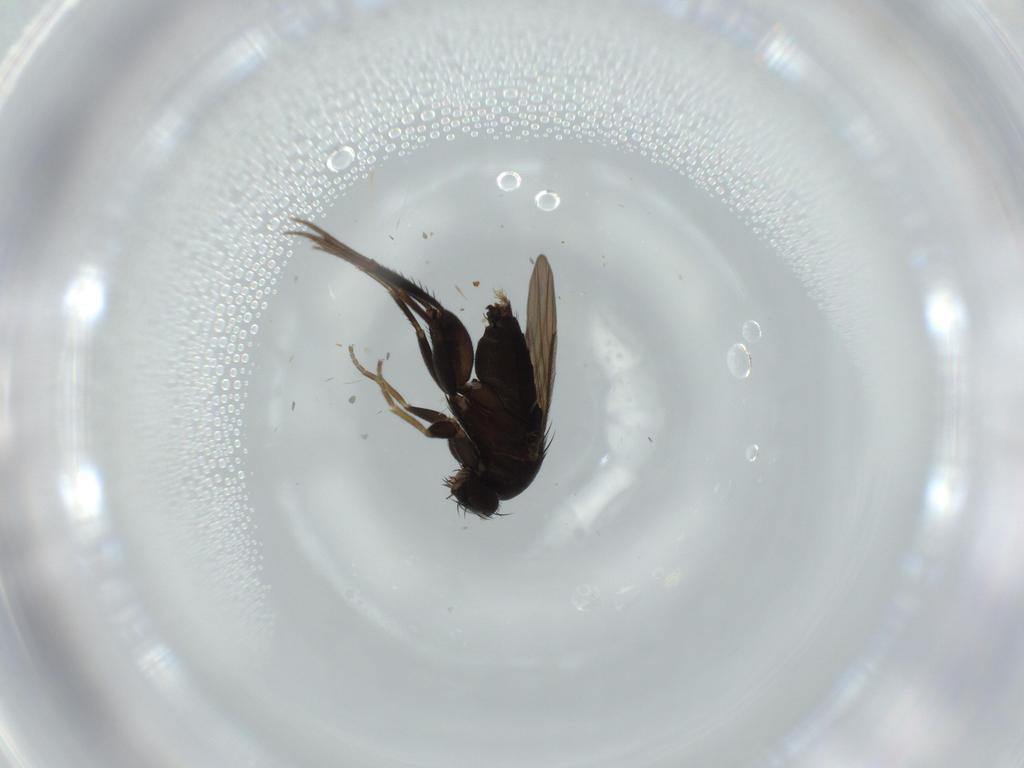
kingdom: Animalia
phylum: Arthropoda
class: Insecta
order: Diptera
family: Phoridae
